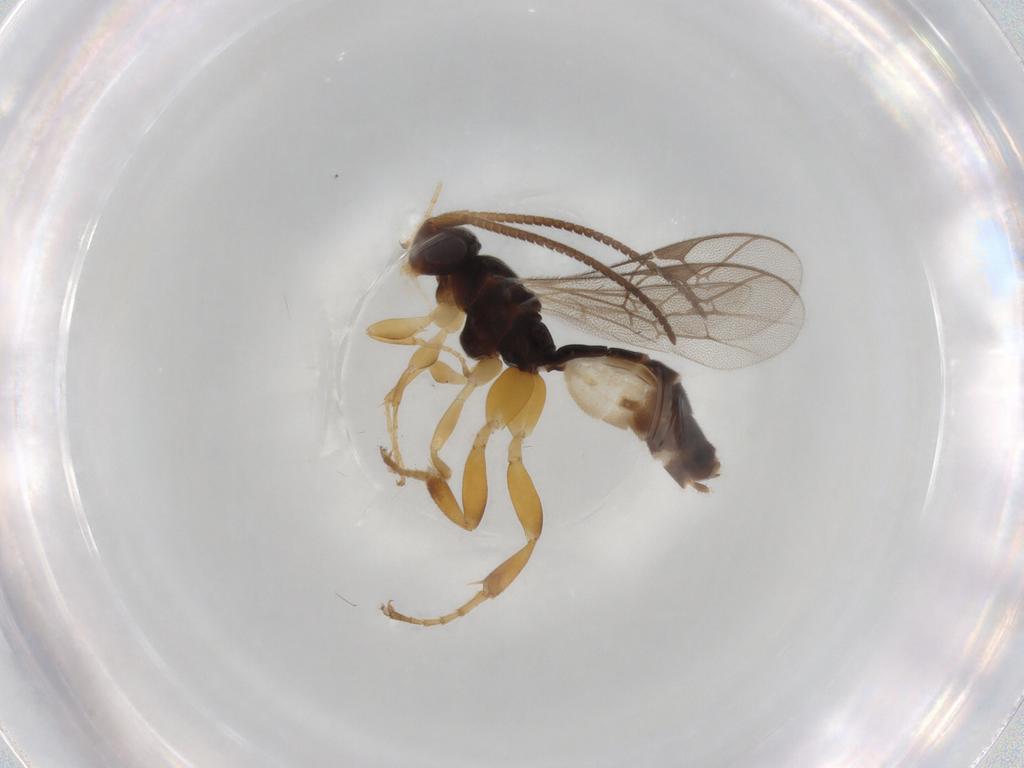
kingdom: Animalia
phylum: Arthropoda
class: Insecta
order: Hymenoptera
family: Ichneumonidae
